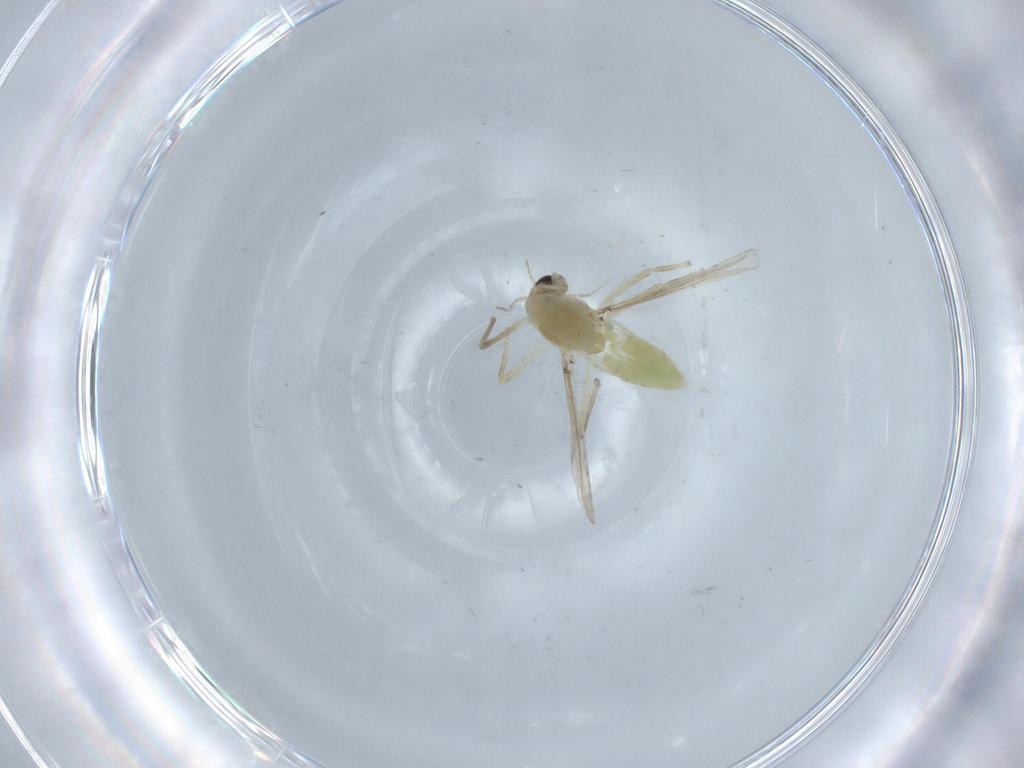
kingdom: Animalia
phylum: Arthropoda
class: Insecta
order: Diptera
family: Chironomidae
